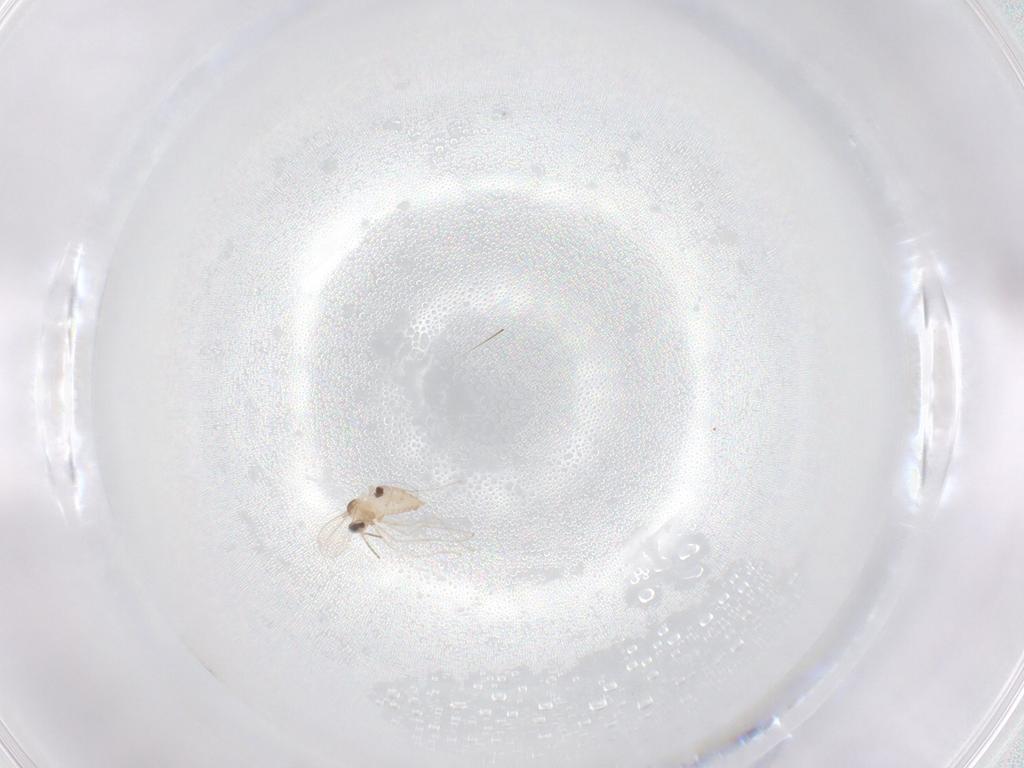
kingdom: Animalia
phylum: Arthropoda
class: Insecta
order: Diptera
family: Cecidomyiidae
